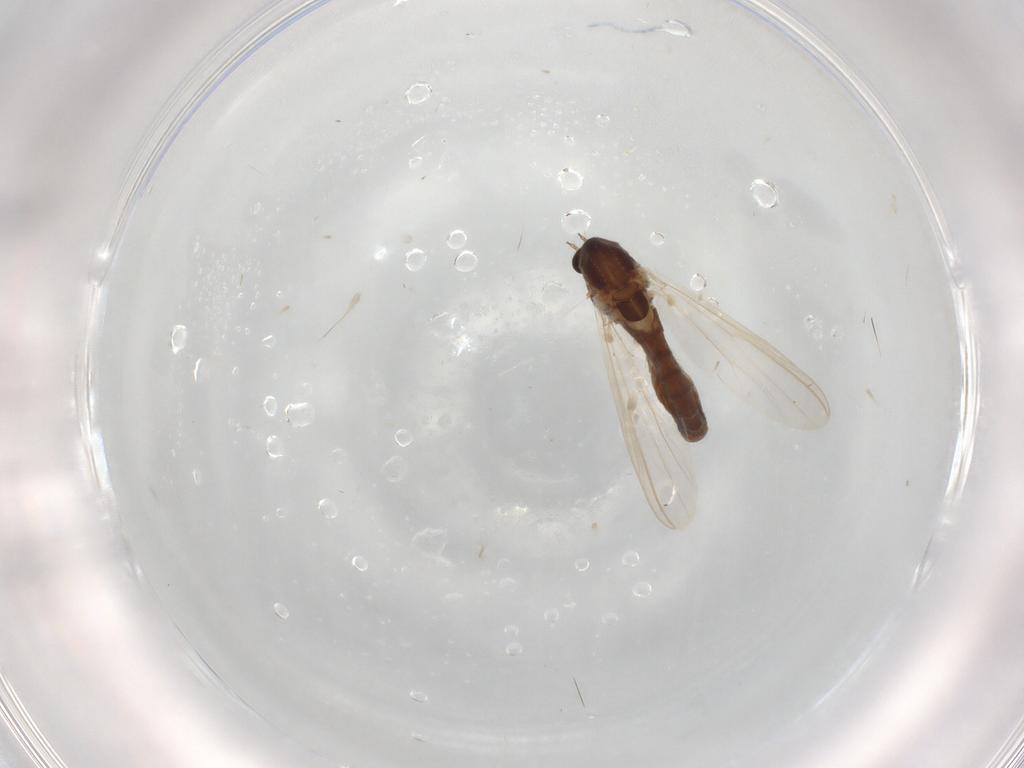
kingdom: Animalia
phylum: Arthropoda
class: Insecta
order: Diptera
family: Chironomidae
